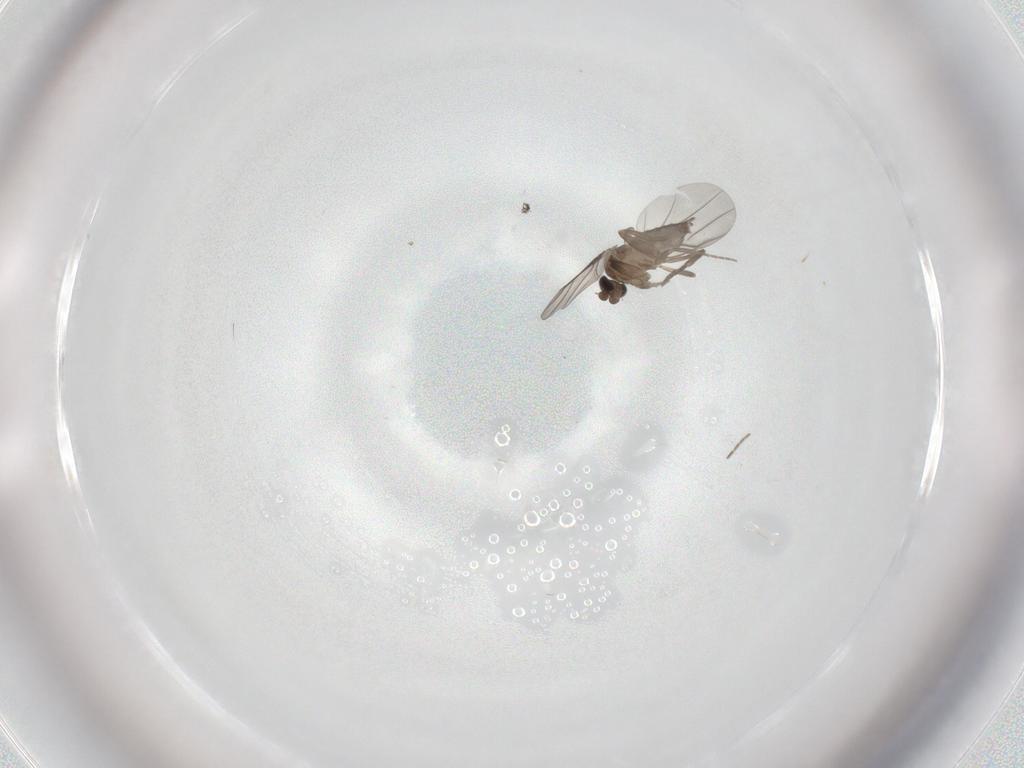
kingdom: Animalia
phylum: Arthropoda
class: Insecta
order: Diptera
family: Phoridae
